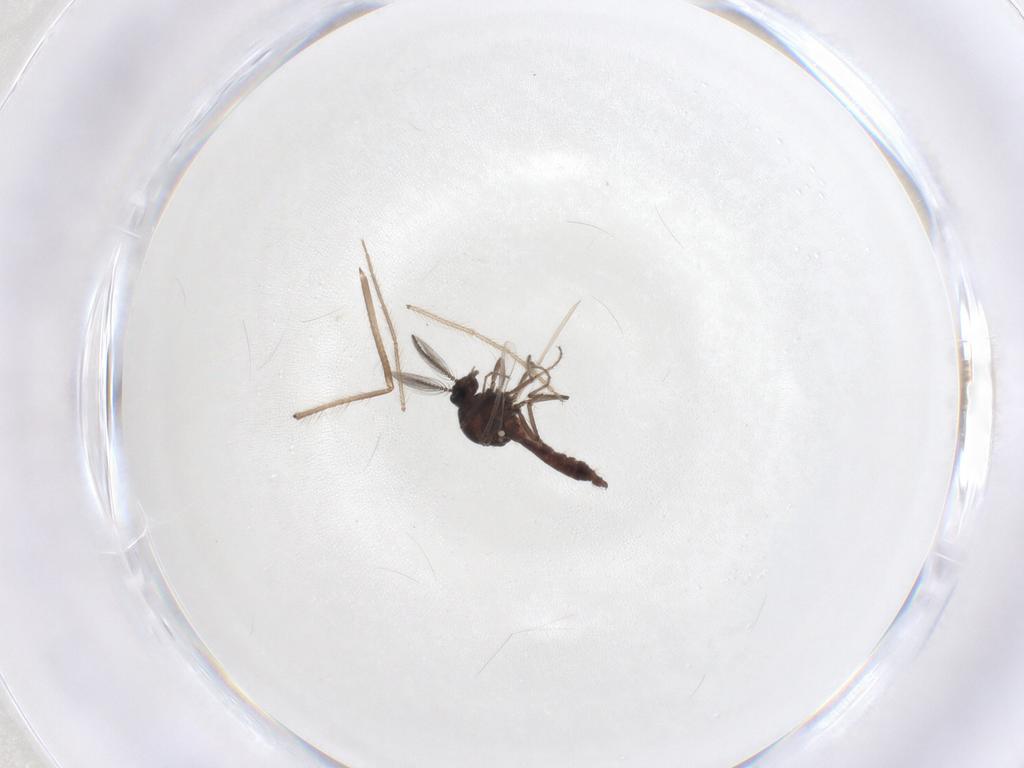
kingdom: Animalia
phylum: Arthropoda
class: Insecta
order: Diptera
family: Ceratopogonidae
